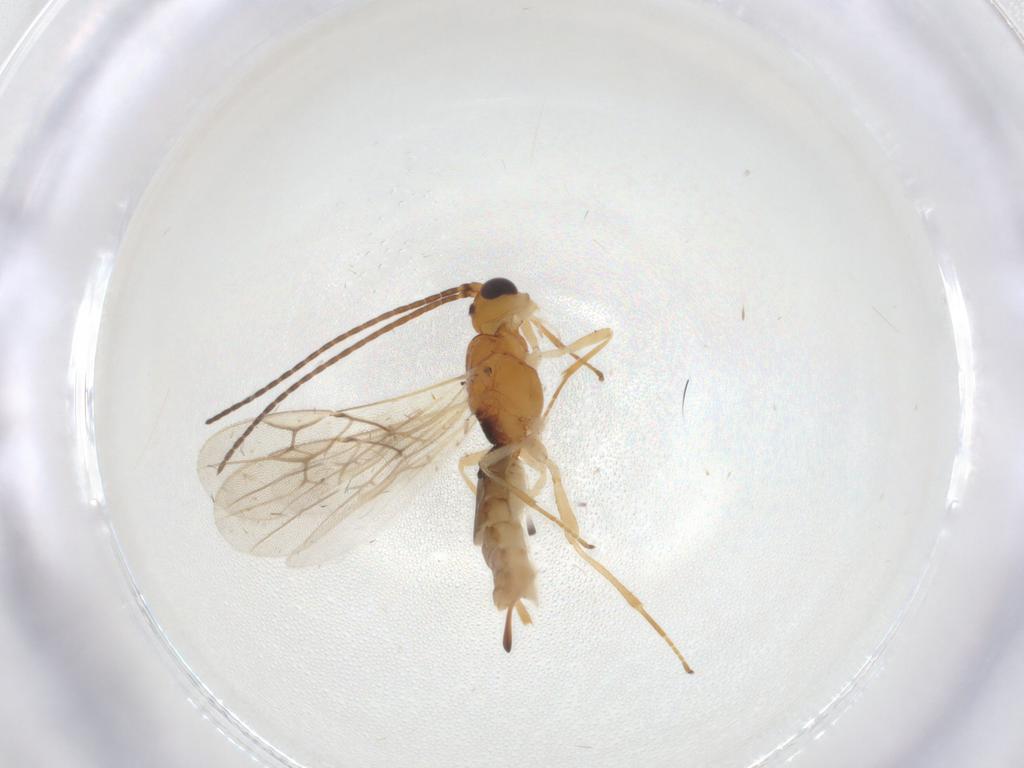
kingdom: Animalia
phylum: Arthropoda
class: Insecta
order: Hymenoptera
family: Braconidae
